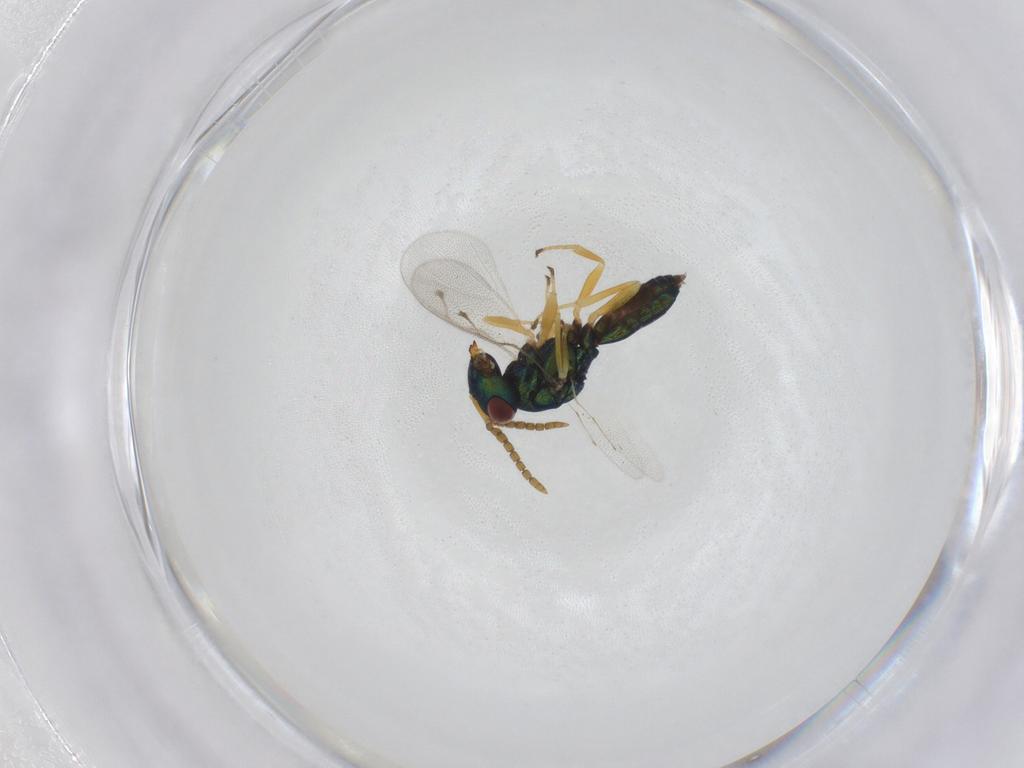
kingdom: Animalia
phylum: Arthropoda
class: Insecta
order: Hymenoptera
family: Pteromalidae
